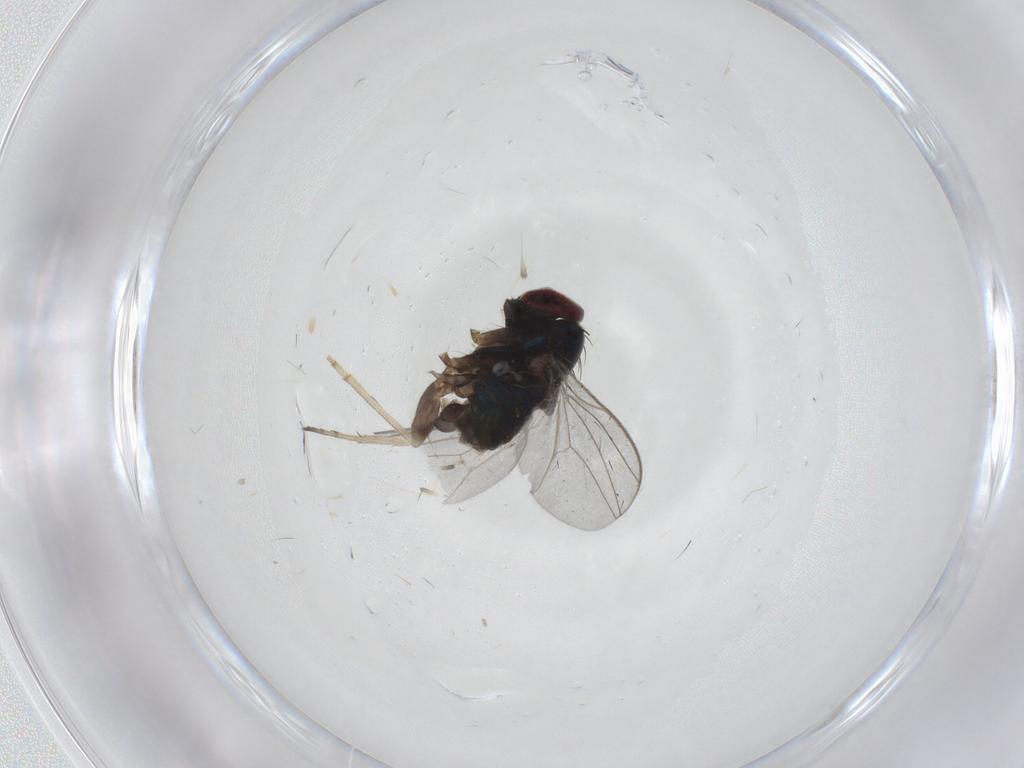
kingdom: Animalia
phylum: Arthropoda
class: Insecta
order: Diptera
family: Dolichopodidae
